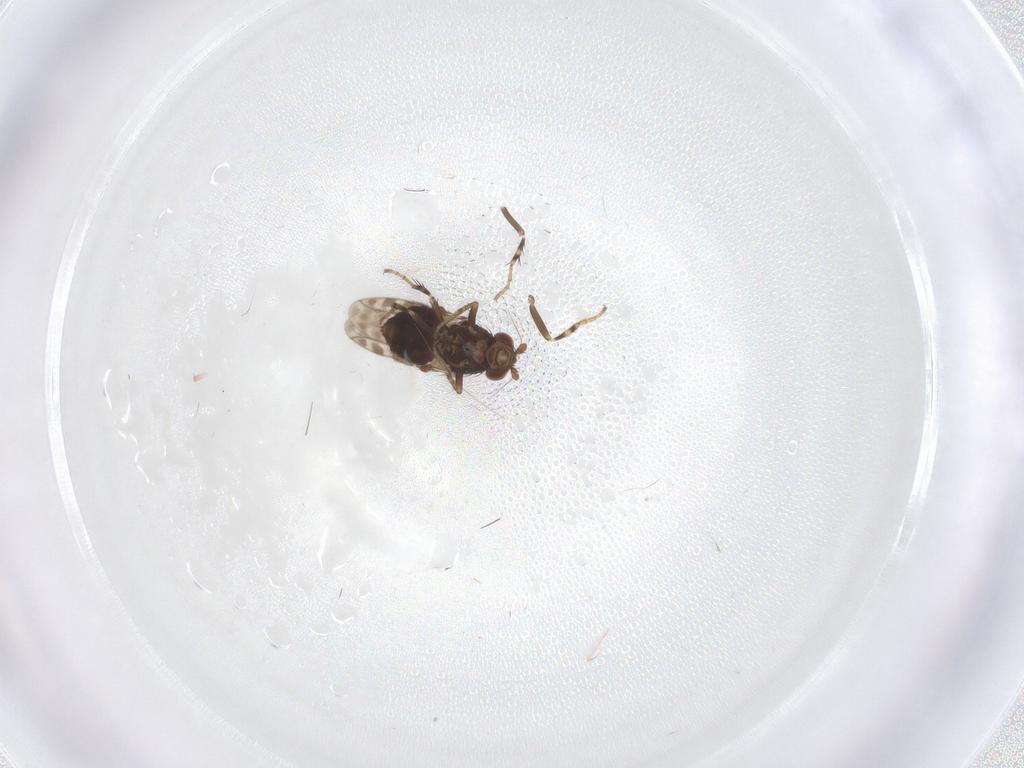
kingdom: Animalia
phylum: Arthropoda
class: Insecta
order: Diptera
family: Sphaeroceridae
